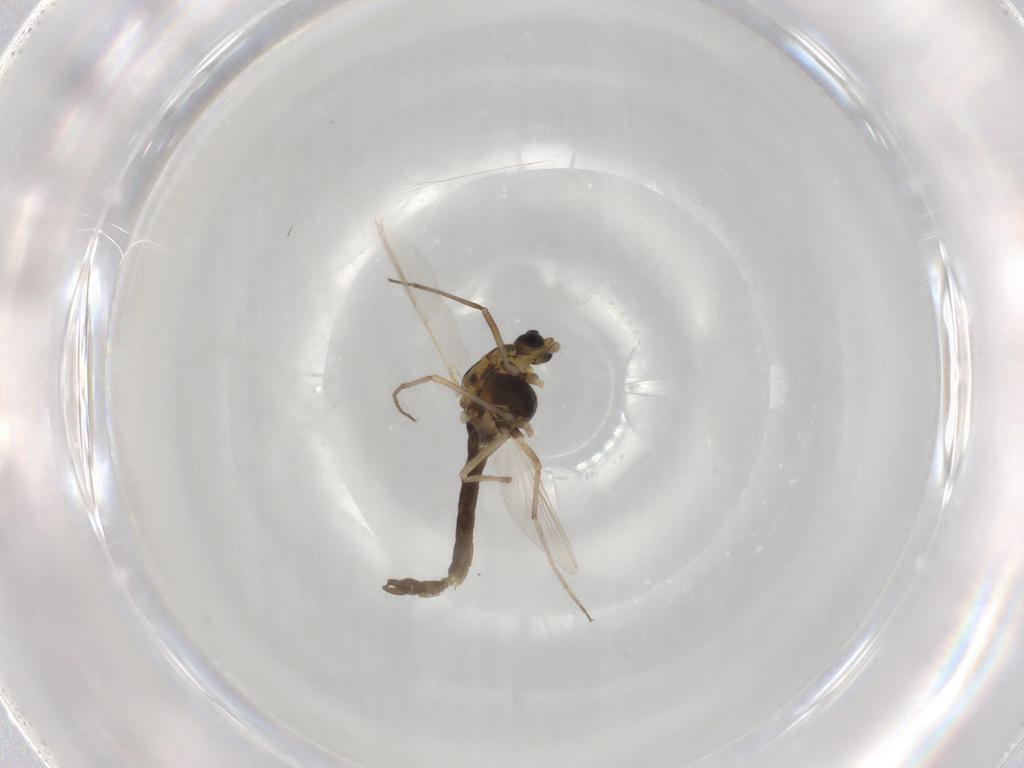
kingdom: Animalia
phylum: Arthropoda
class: Insecta
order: Diptera
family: Chironomidae
